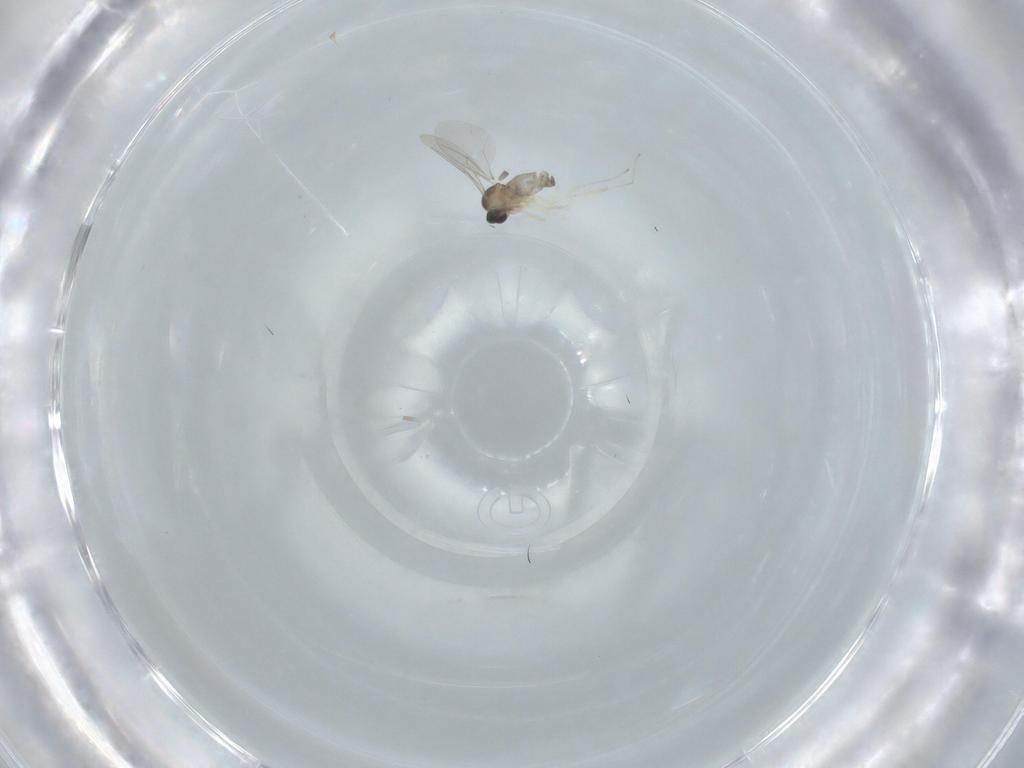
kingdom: Animalia
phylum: Arthropoda
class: Insecta
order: Diptera
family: Cecidomyiidae
